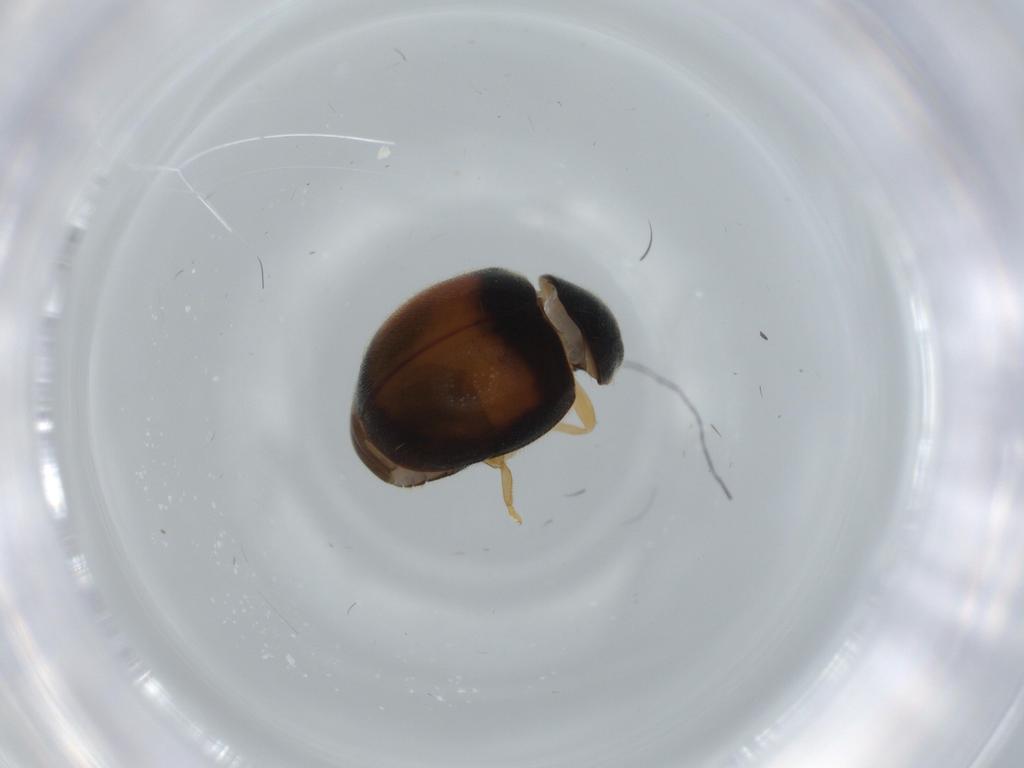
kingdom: Animalia
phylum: Arthropoda
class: Insecta
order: Coleoptera
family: Coccinellidae
